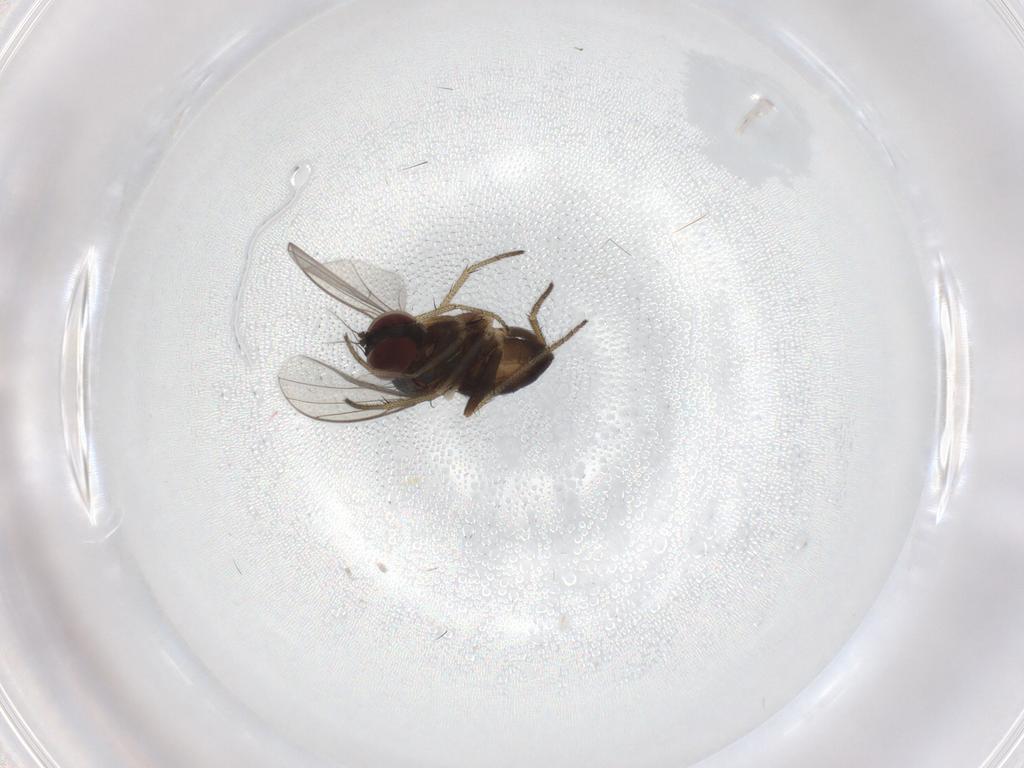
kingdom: Animalia
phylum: Arthropoda
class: Insecta
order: Diptera
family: Dolichopodidae
